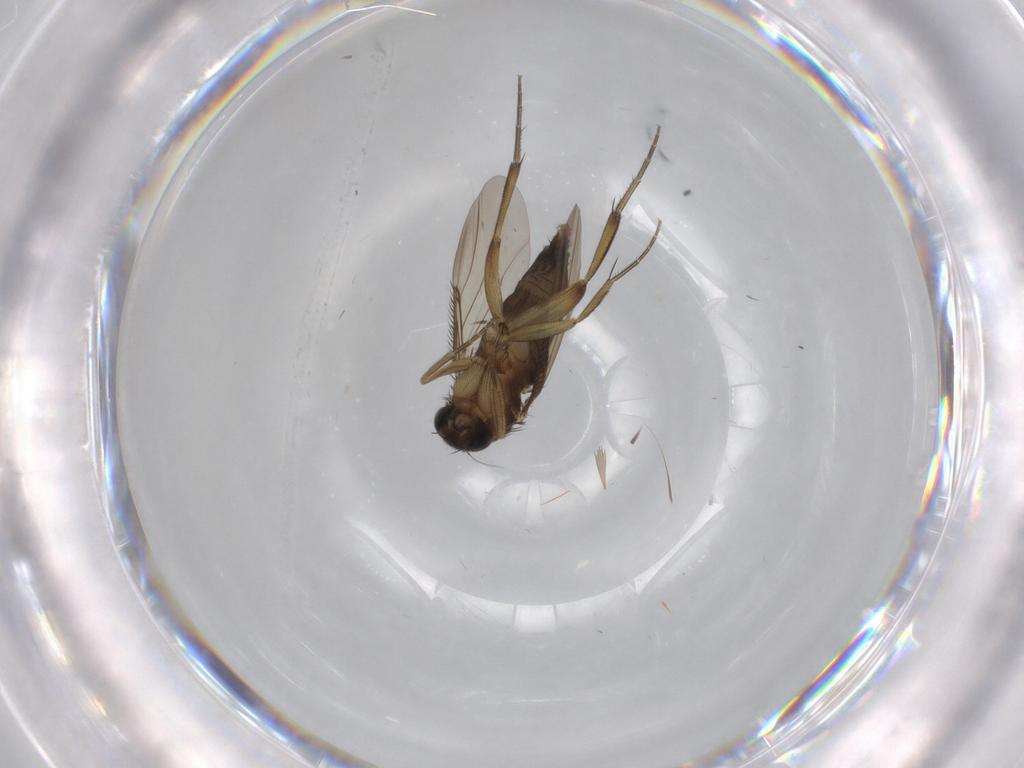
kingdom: Animalia
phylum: Arthropoda
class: Insecta
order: Diptera
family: Phoridae
